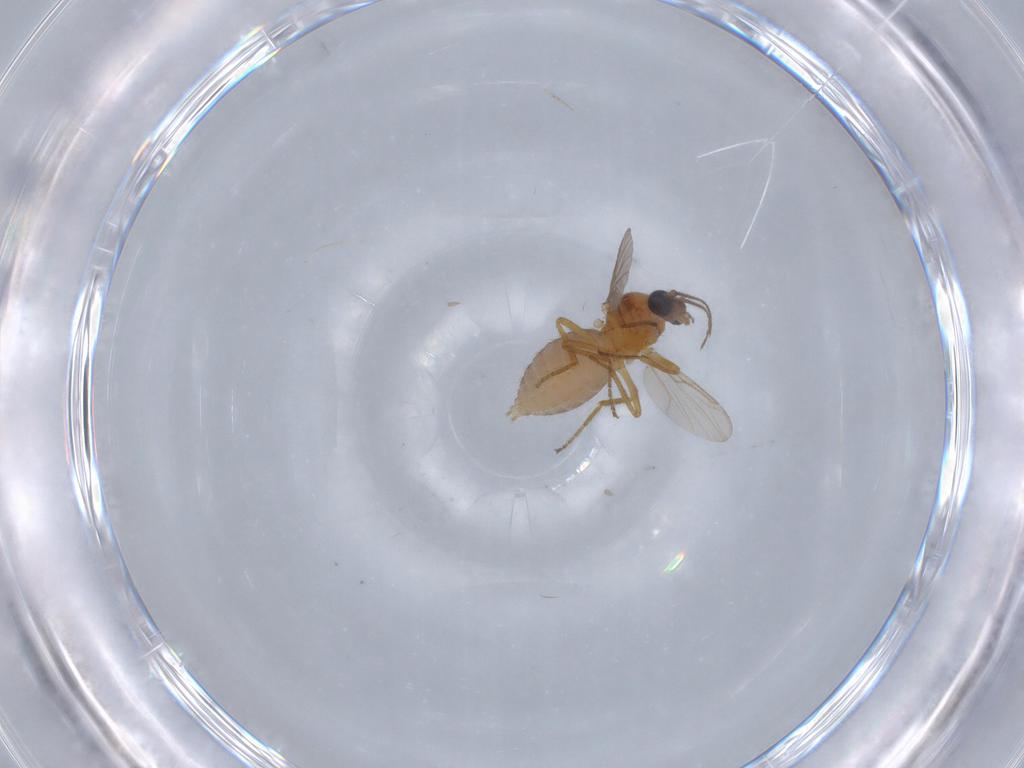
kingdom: Animalia
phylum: Arthropoda
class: Insecta
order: Diptera
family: Ceratopogonidae
